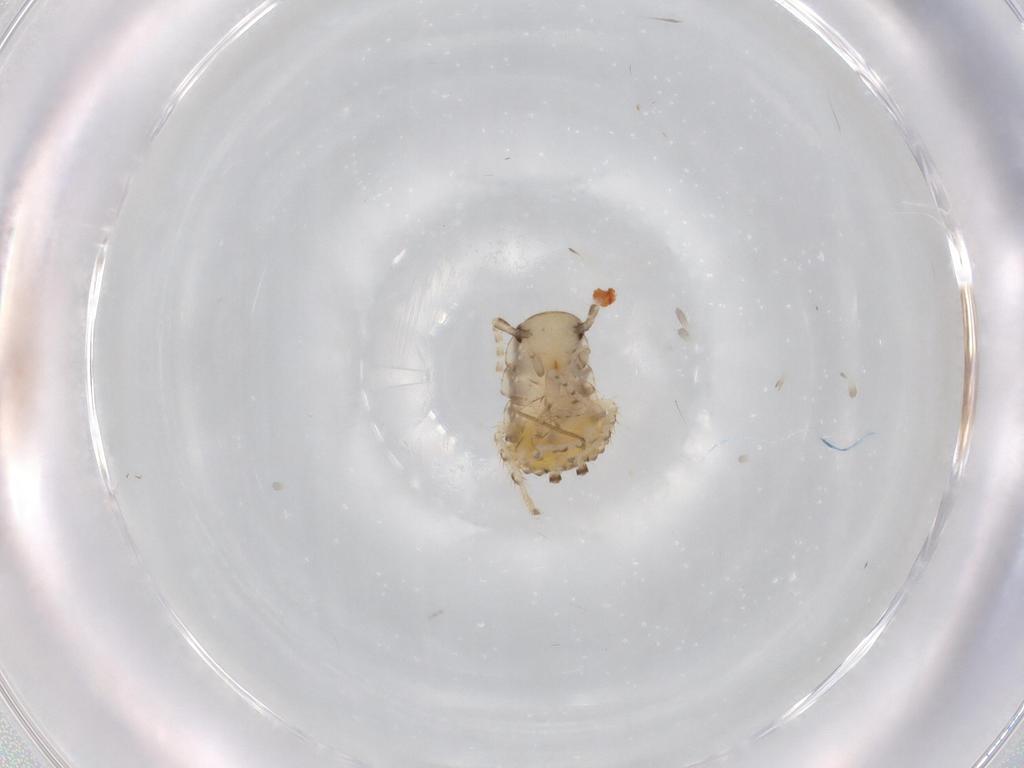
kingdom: Animalia
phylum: Arthropoda
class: Insecta
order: Blattodea
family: Ectobiidae
